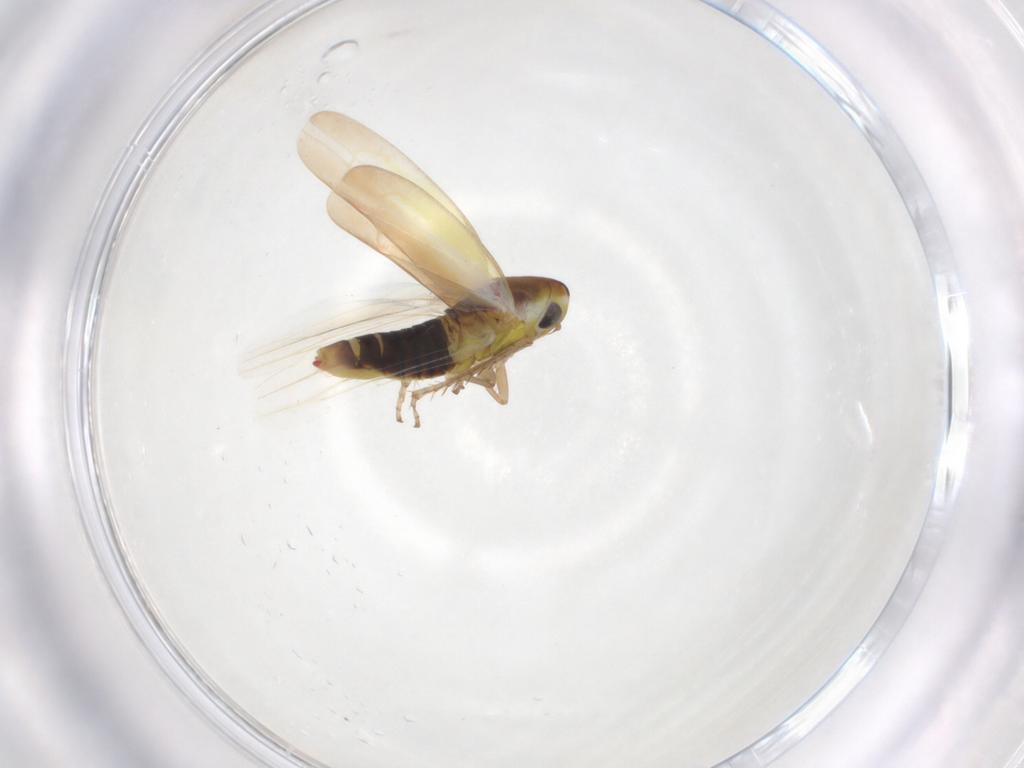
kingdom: Animalia
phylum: Arthropoda
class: Insecta
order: Hemiptera
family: Cicadellidae
